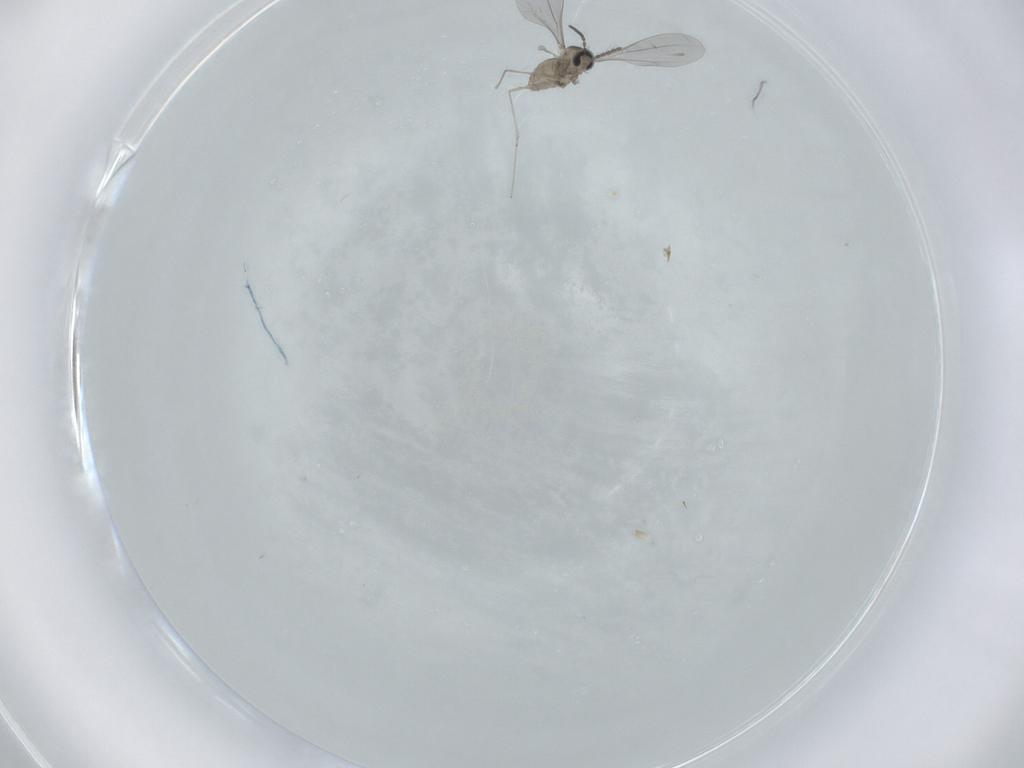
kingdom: Animalia
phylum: Arthropoda
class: Insecta
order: Diptera
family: Cecidomyiidae
